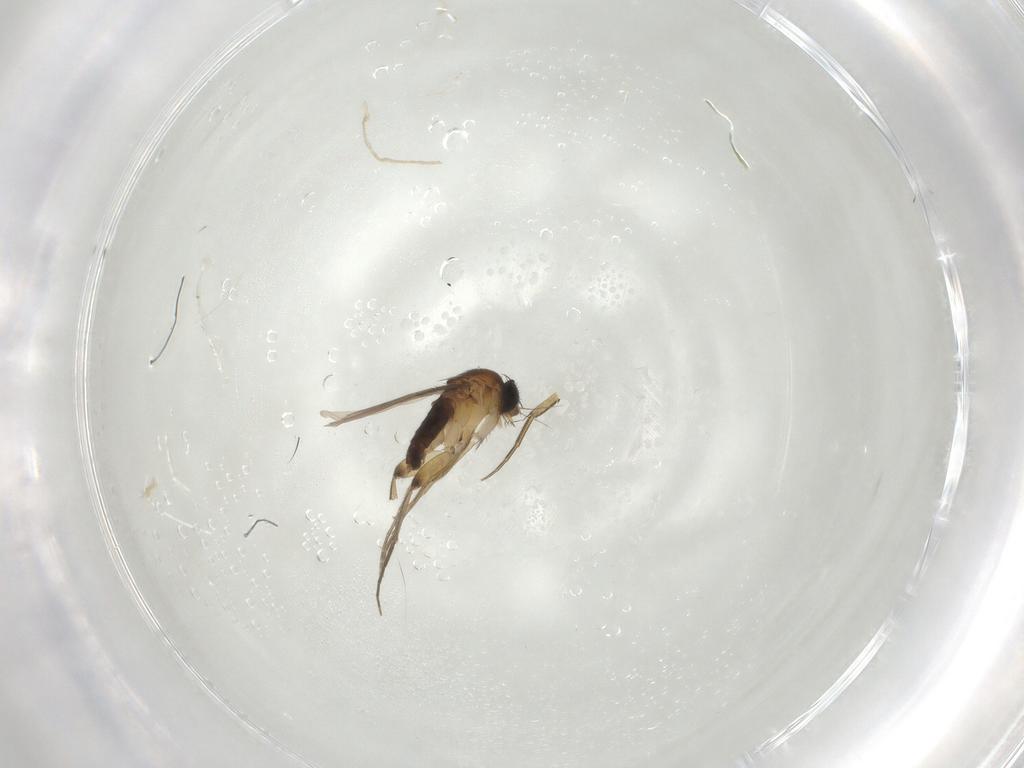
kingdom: Animalia
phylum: Arthropoda
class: Insecta
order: Diptera
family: Phoridae
